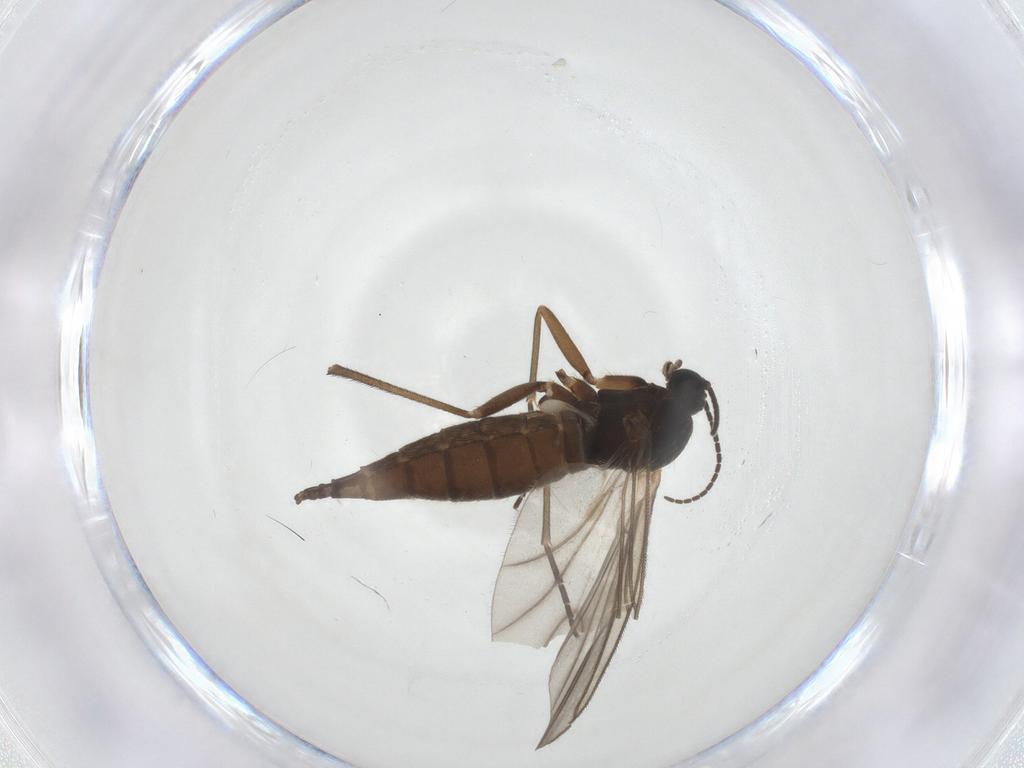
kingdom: Animalia
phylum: Arthropoda
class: Insecta
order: Diptera
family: Sciaridae
